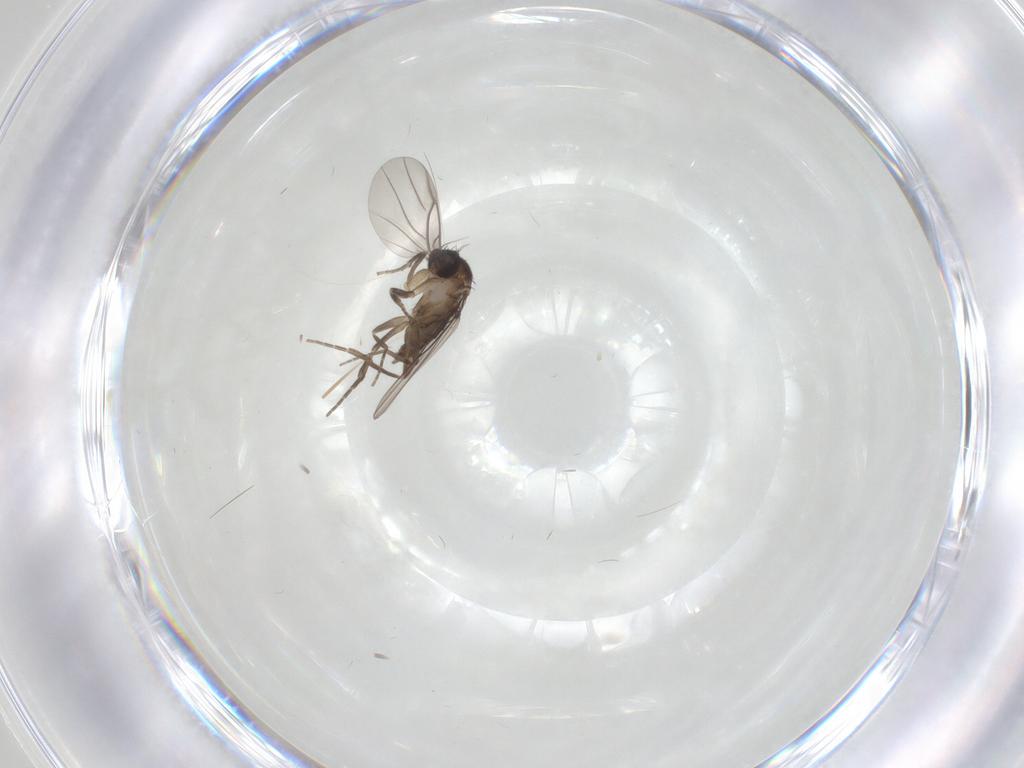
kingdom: Animalia
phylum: Arthropoda
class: Insecta
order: Diptera
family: Phoridae
